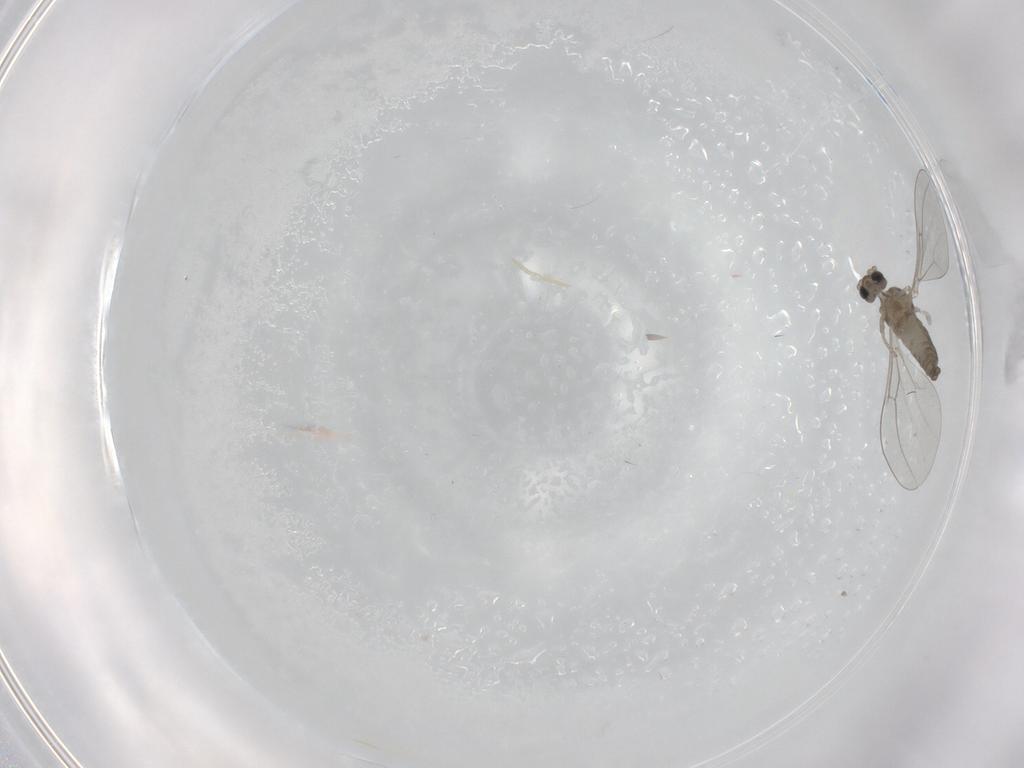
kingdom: Animalia
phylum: Arthropoda
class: Insecta
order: Diptera
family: Cecidomyiidae
